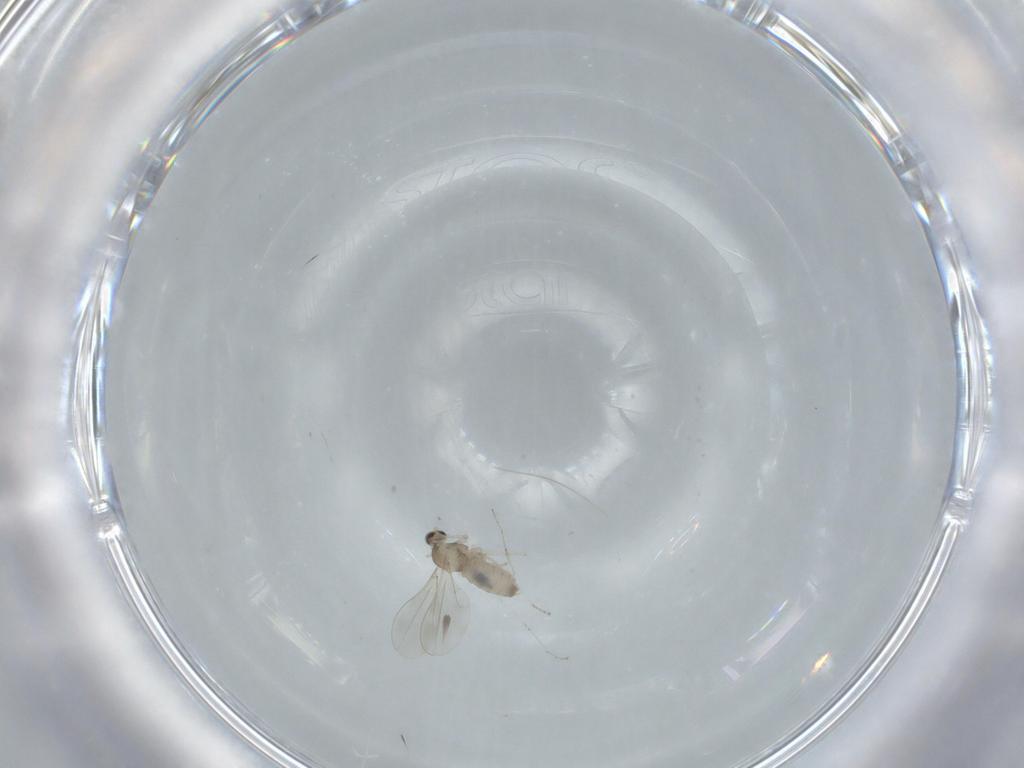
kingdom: Animalia
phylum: Arthropoda
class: Insecta
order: Diptera
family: Cecidomyiidae
